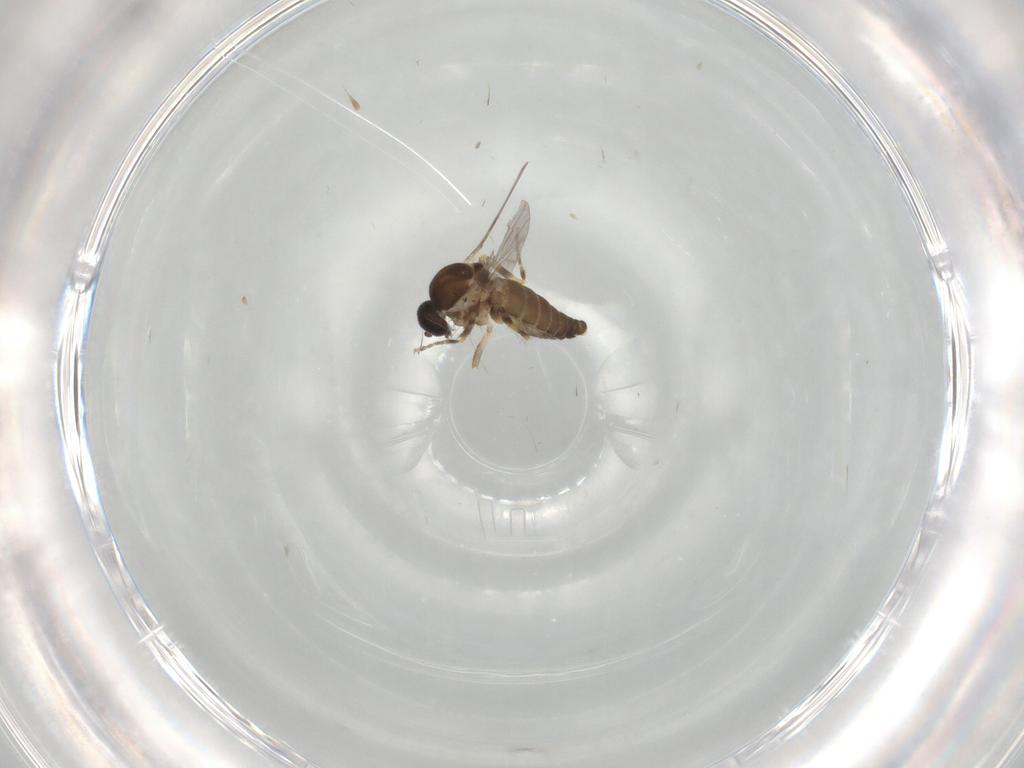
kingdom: Animalia
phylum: Arthropoda
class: Insecta
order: Diptera
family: Ceratopogonidae
